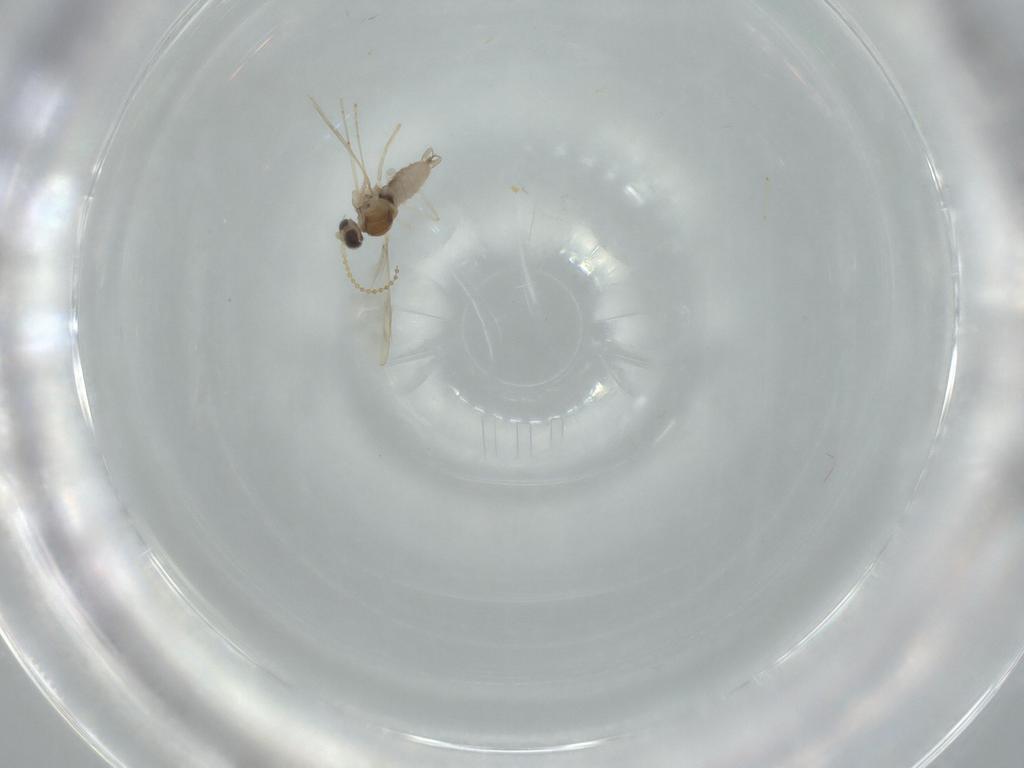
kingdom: Animalia
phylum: Arthropoda
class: Insecta
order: Diptera
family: Cecidomyiidae
